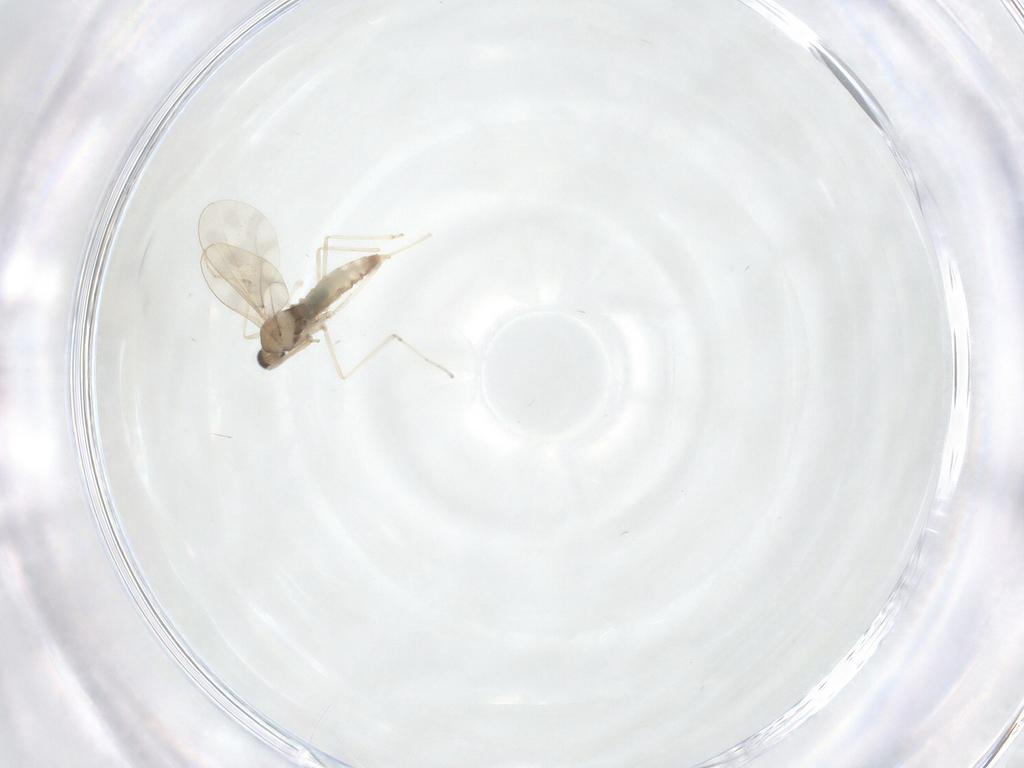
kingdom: Animalia
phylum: Arthropoda
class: Insecta
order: Diptera
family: Cecidomyiidae
